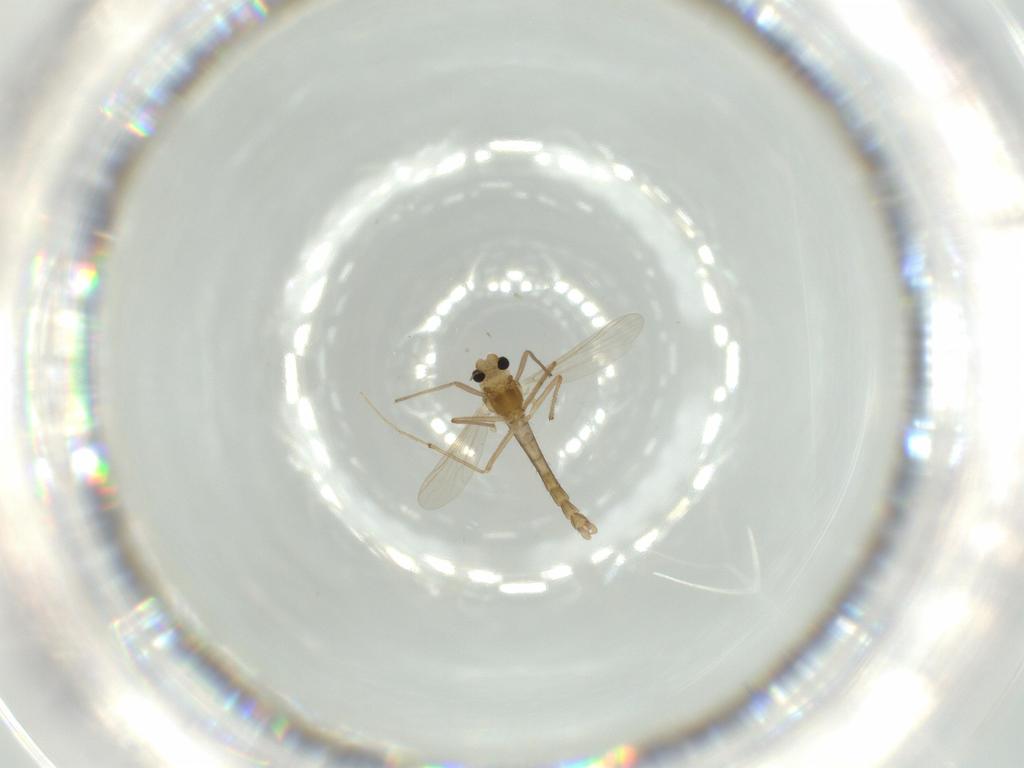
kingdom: Animalia
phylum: Arthropoda
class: Insecta
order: Diptera
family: Chironomidae
